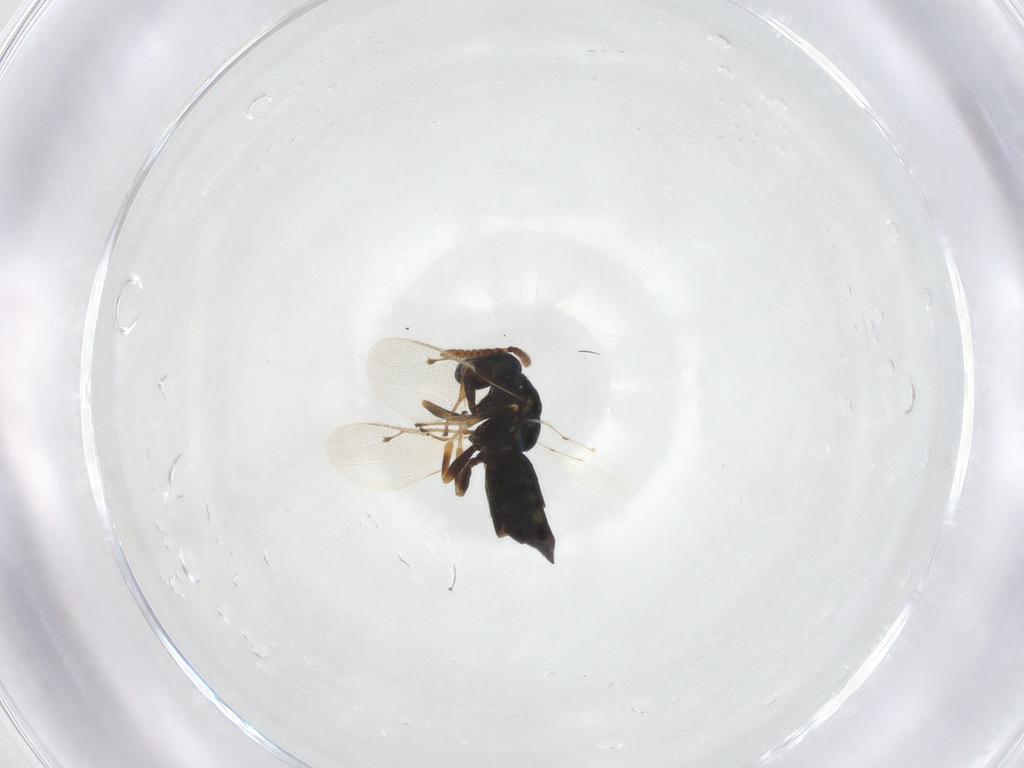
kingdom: Animalia
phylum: Arthropoda
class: Insecta
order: Hymenoptera
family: Pteromalidae
